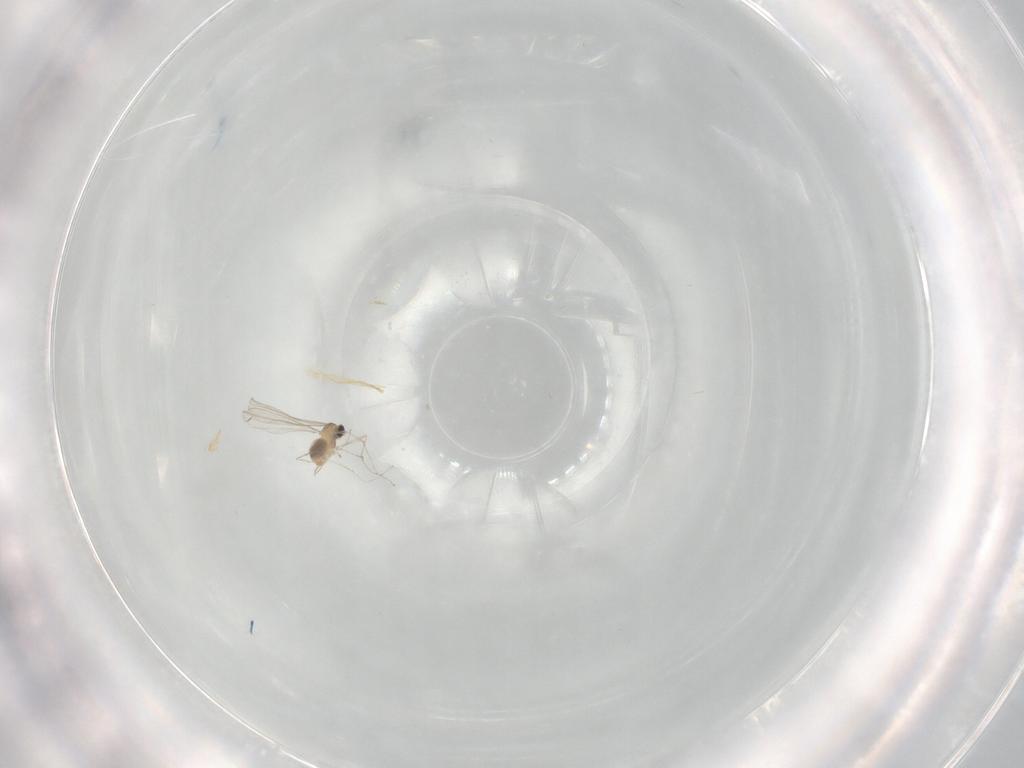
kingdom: Animalia
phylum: Arthropoda
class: Insecta
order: Diptera
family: Cecidomyiidae
